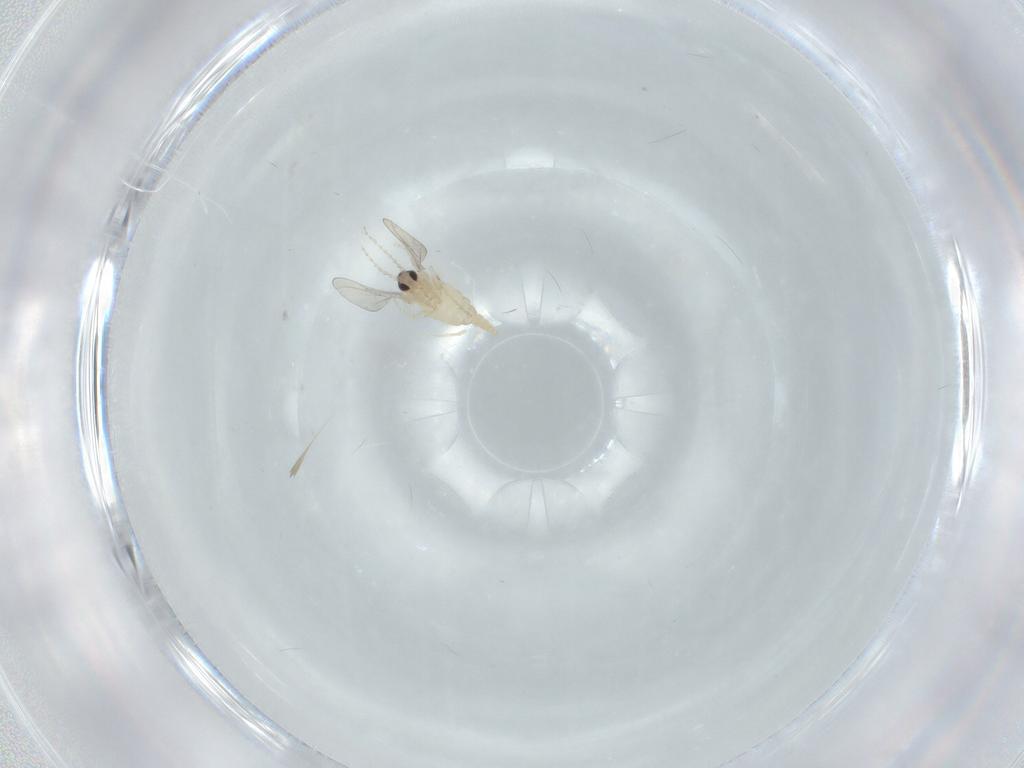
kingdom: Animalia
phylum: Arthropoda
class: Insecta
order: Diptera
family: Cecidomyiidae
